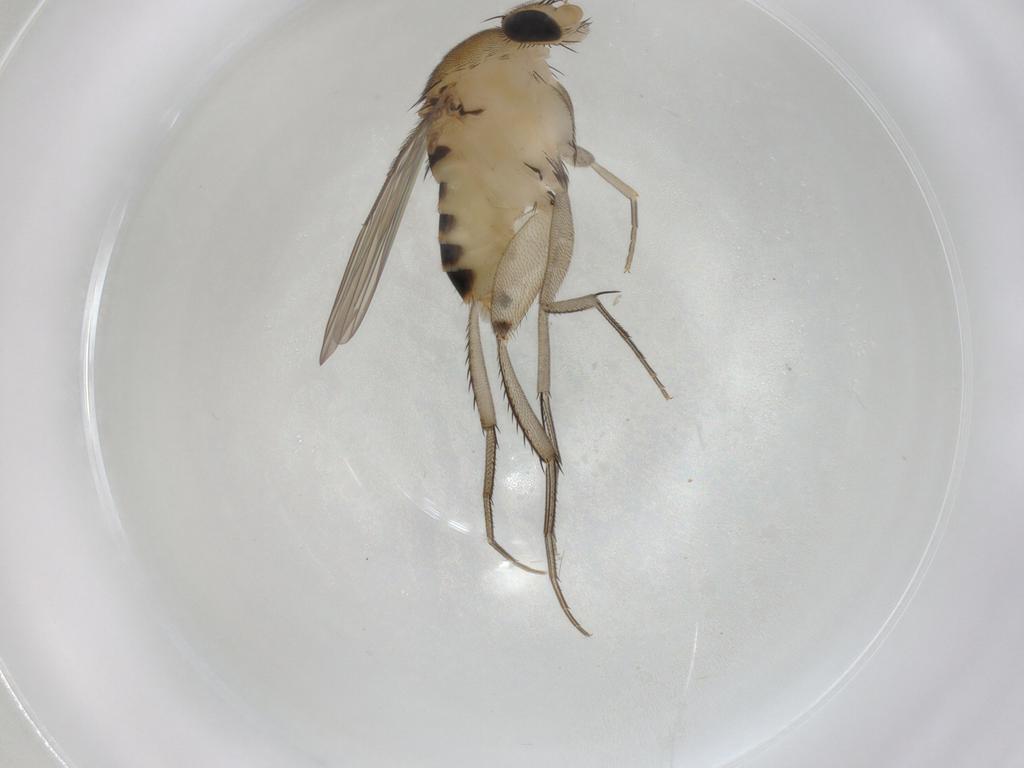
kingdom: Animalia
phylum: Arthropoda
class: Insecta
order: Diptera
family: Phoridae
